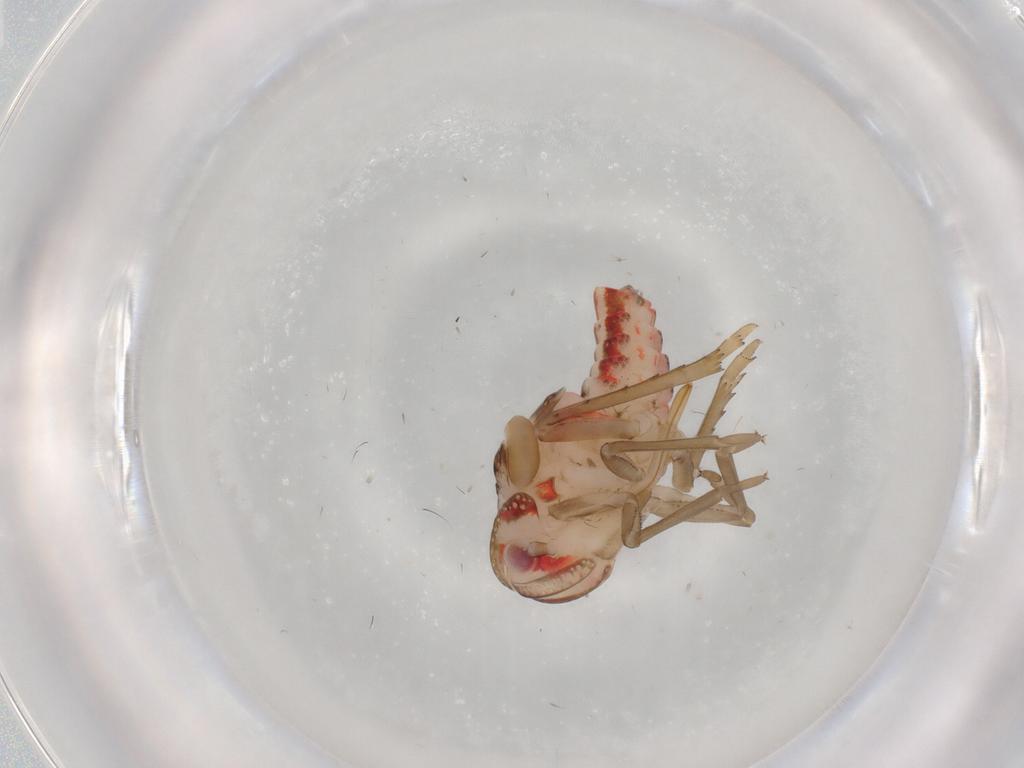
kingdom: Animalia
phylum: Arthropoda
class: Insecta
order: Hemiptera
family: Nogodinidae
